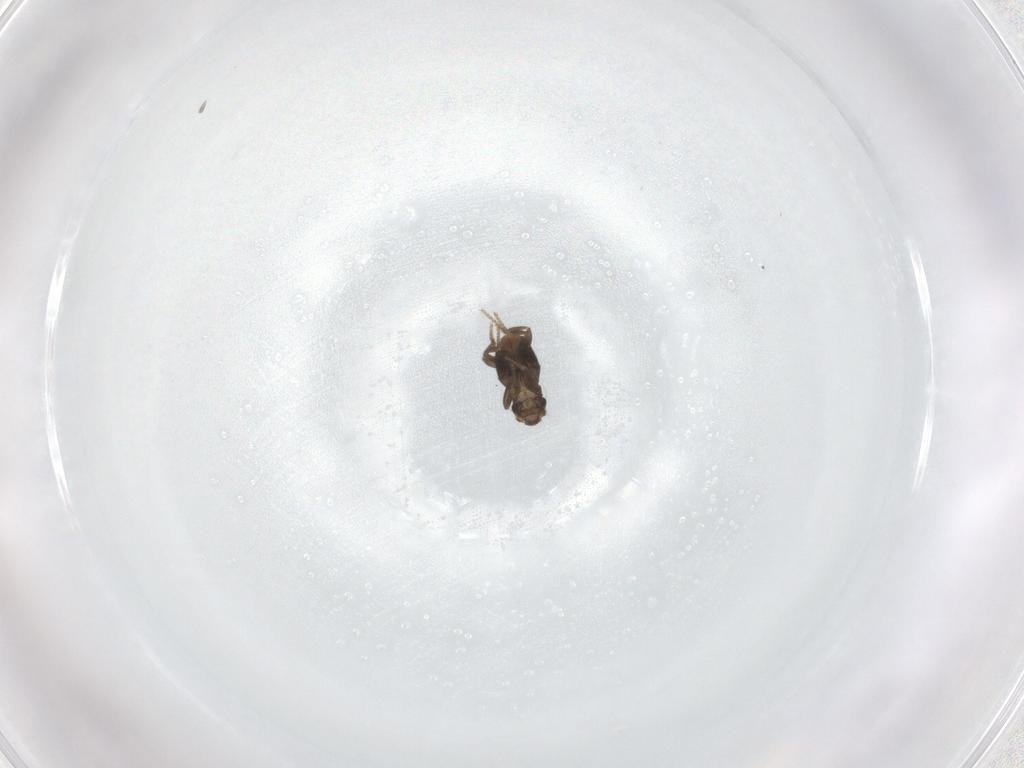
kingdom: Animalia
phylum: Arthropoda
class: Insecta
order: Diptera
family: Phoridae
